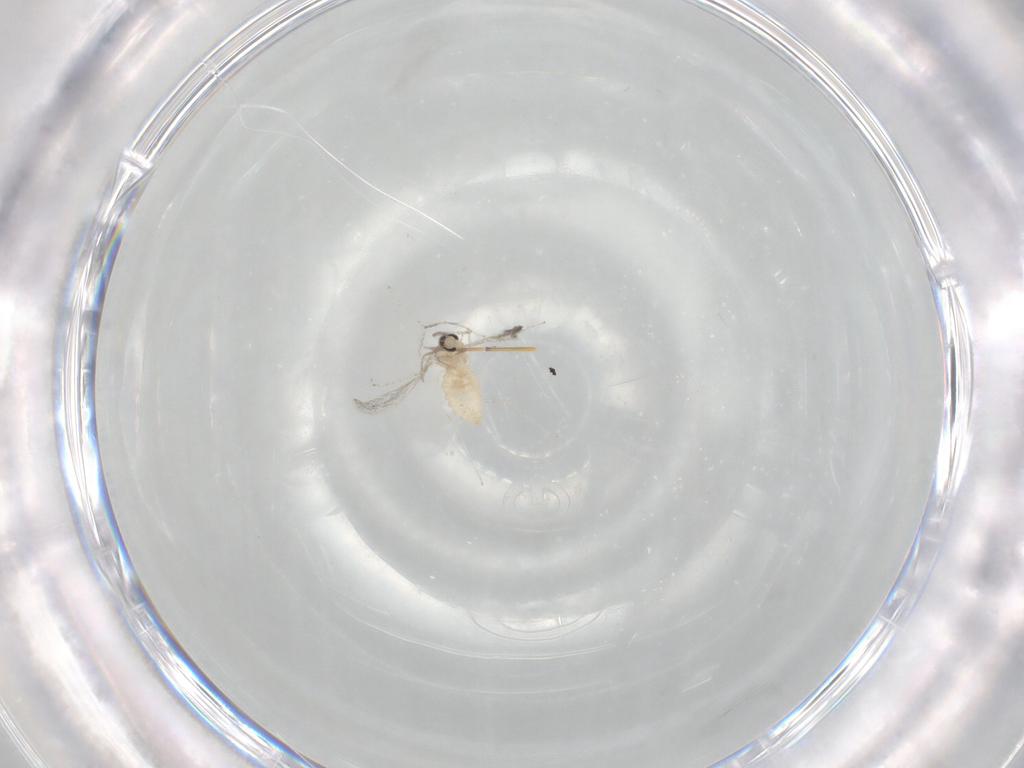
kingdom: Animalia
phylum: Arthropoda
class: Insecta
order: Diptera
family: Cecidomyiidae
